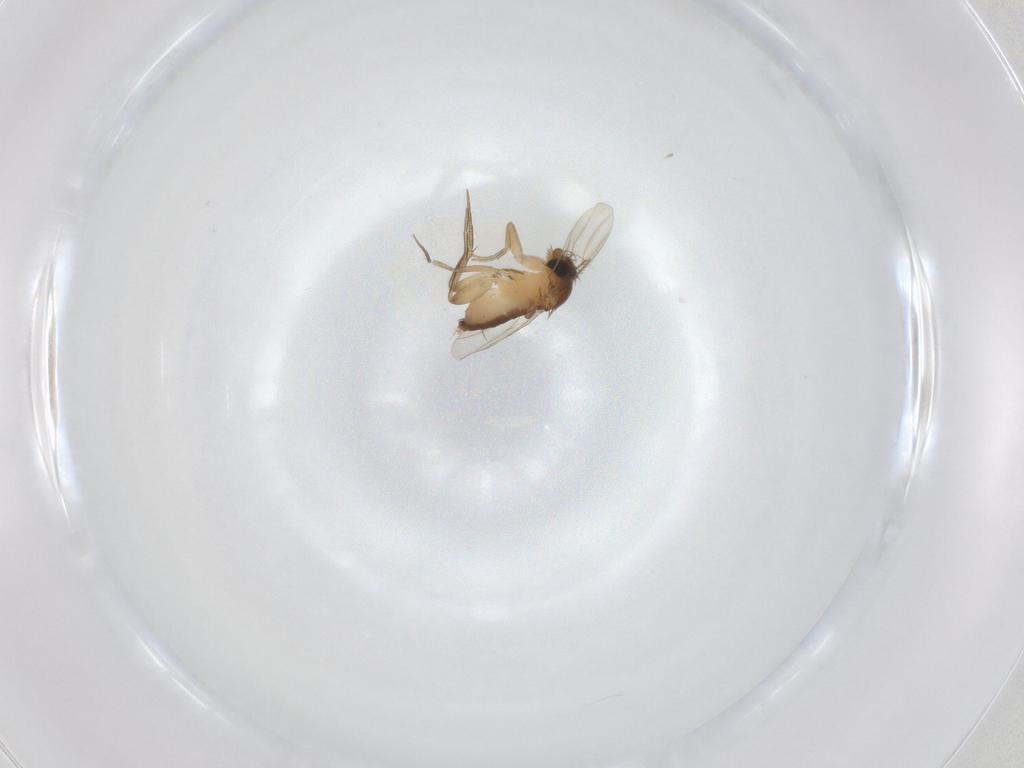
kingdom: Animalia
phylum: Arthropoda
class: Insecta
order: Diptera
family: Phoridae
